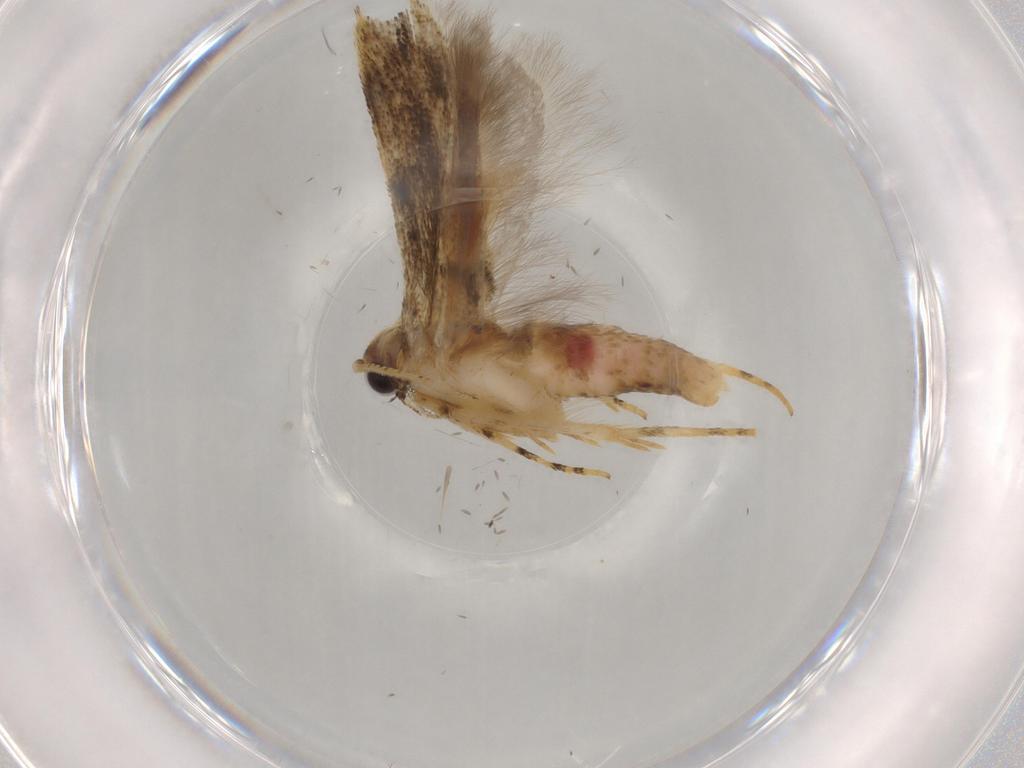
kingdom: Animalia
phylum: Arthropoda
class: Insecta
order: Lepidoptera
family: Gelechiidae
